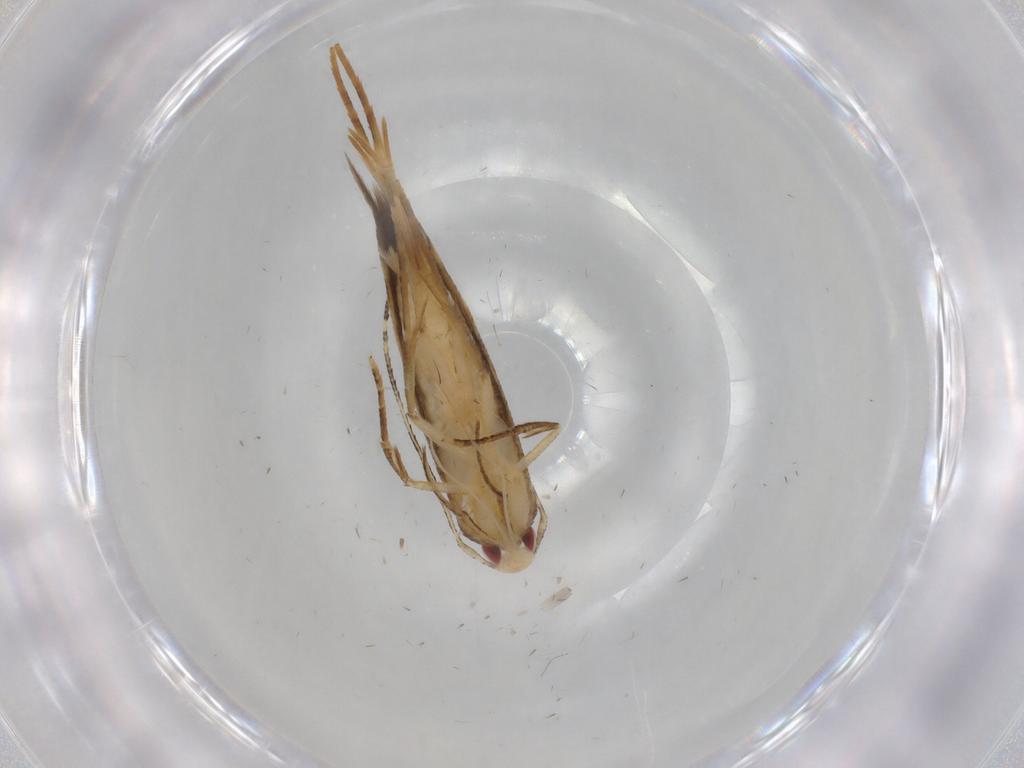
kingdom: Animalia
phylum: Arthropoda
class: Insecta
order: Lepidoptera
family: Gelechiidae
